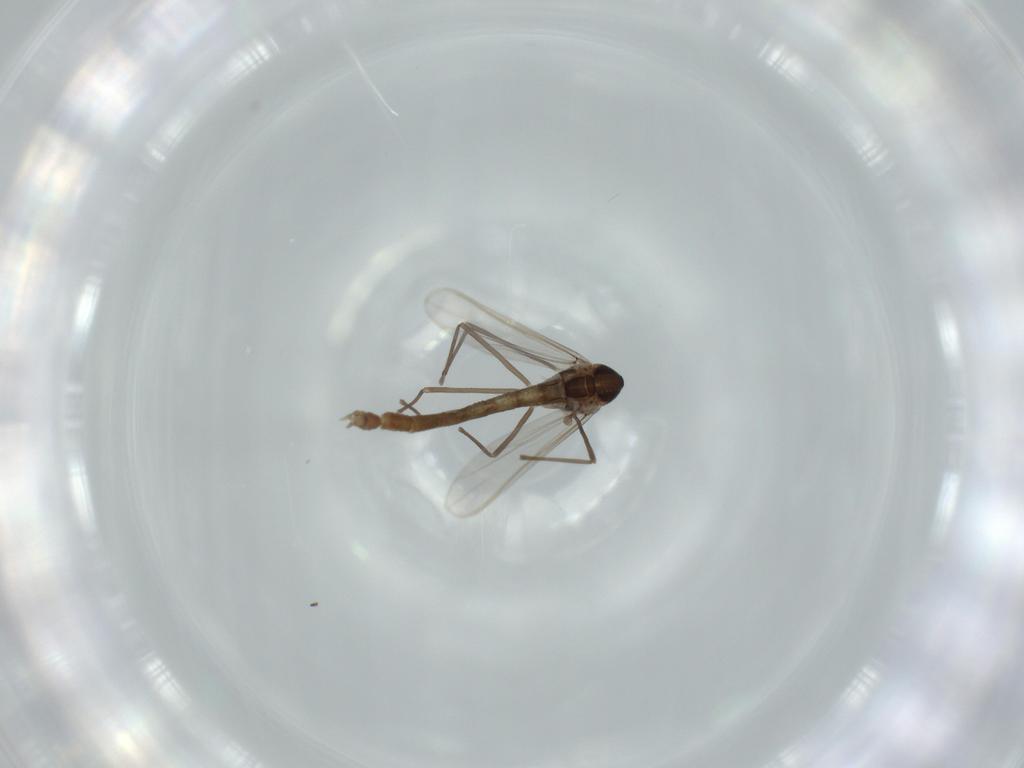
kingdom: Animalia
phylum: Arthropoda
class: Insecta
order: Diptera
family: Chironomidae
